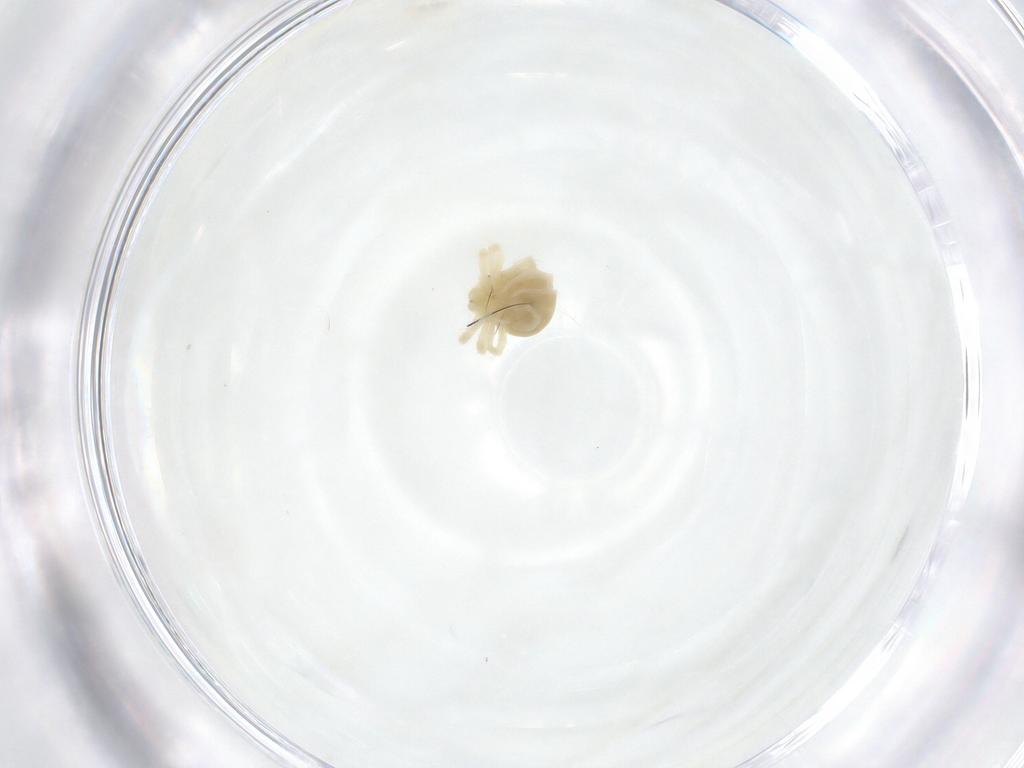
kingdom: Animalia
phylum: Arthropoda
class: Arachnida
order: Trombidiformes
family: Anystidae
